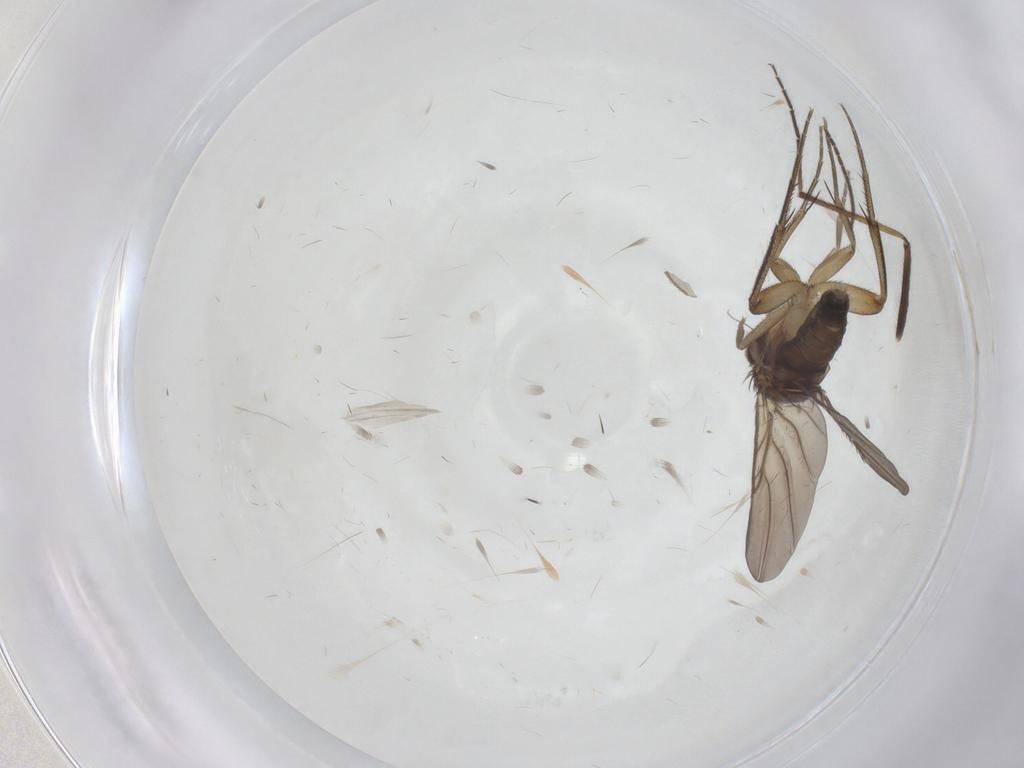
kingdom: Animalia
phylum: Arthropoda
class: Insecta
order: Diptera
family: Phoridae
